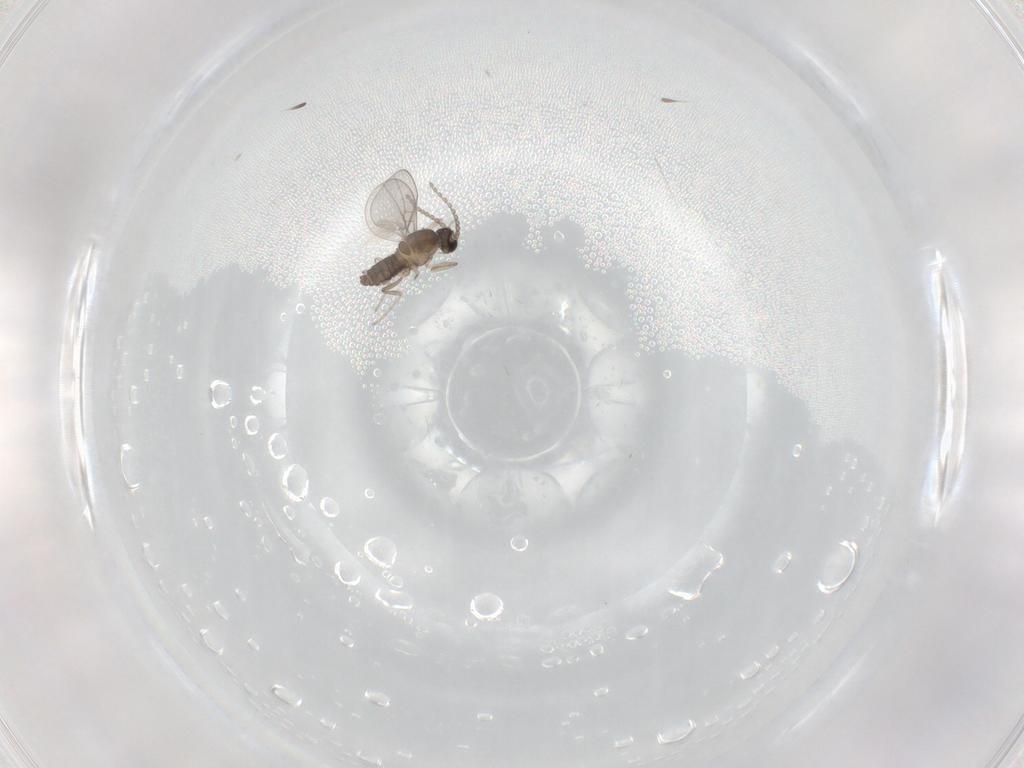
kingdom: Animalia
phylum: Arthropoda
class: Insecta
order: Diptera
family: Cecidomyiidae
